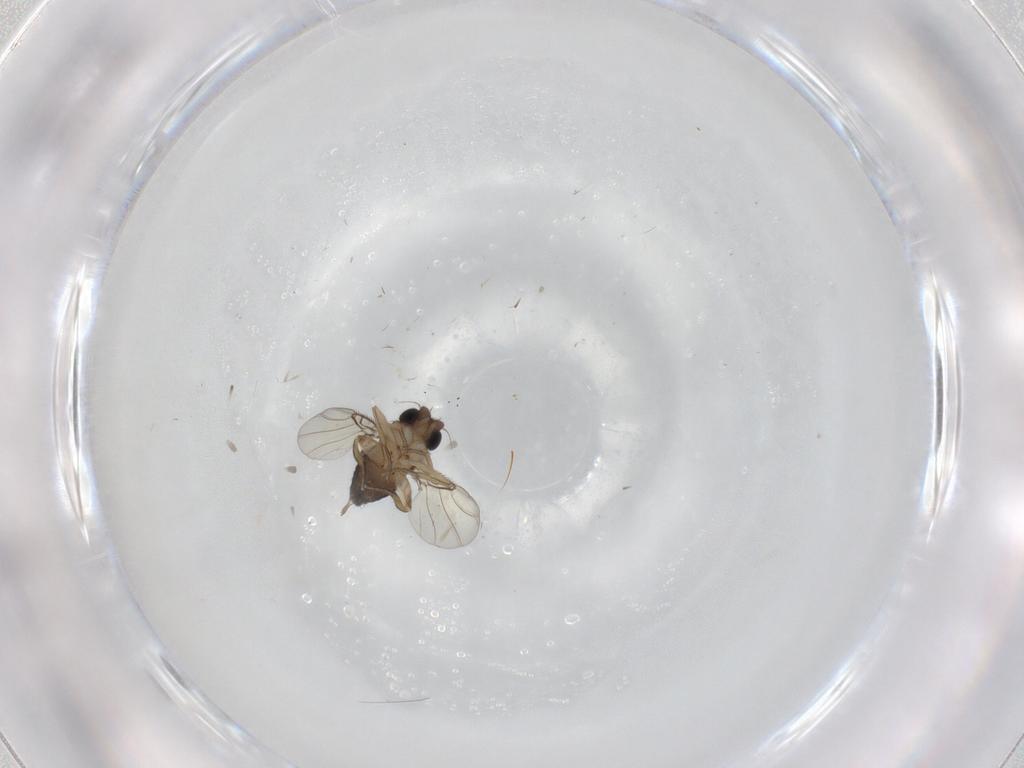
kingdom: Animalia
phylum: Arthropoda
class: Insecta
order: Diptera
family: Phoridae
